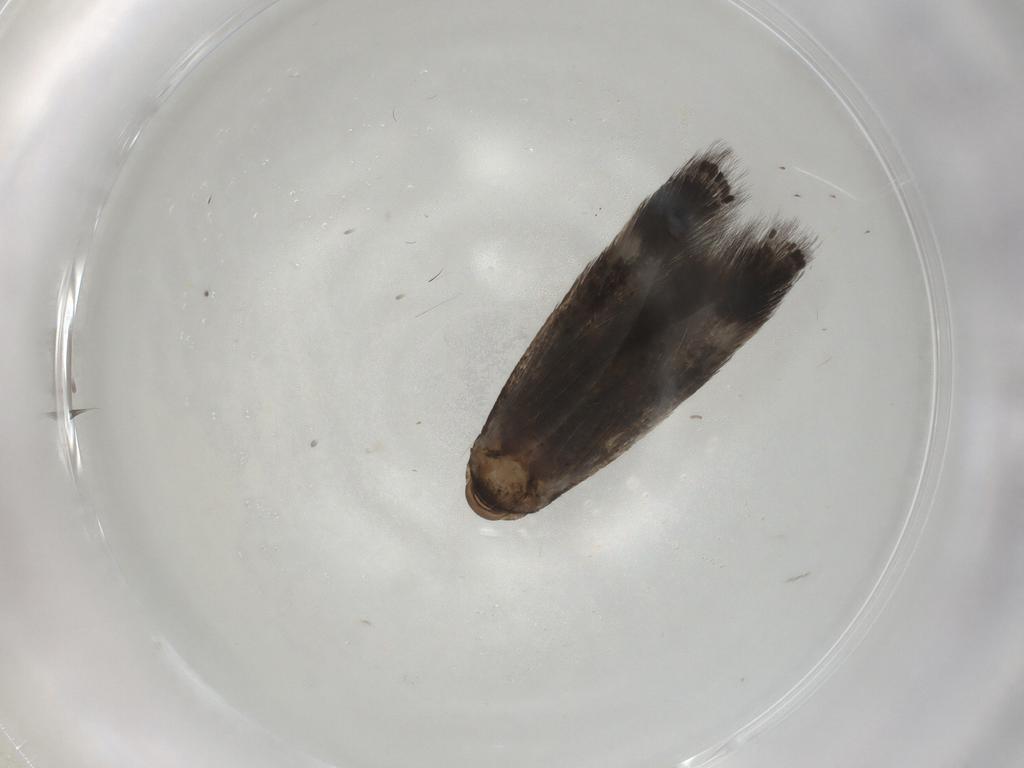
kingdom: Animalia
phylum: Arthropoda
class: Insecta
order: Lepidoptera
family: Elachistidae
